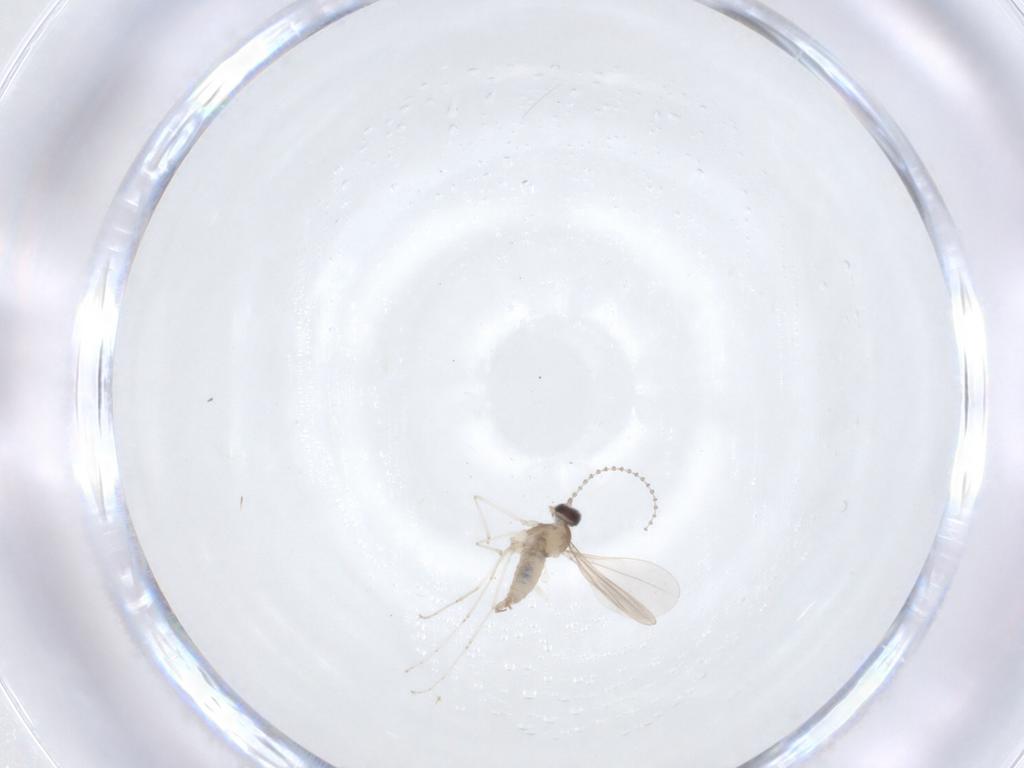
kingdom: Animalia
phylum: Arthropoda
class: Insecta
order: Diptera
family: Cecidomyiidae
